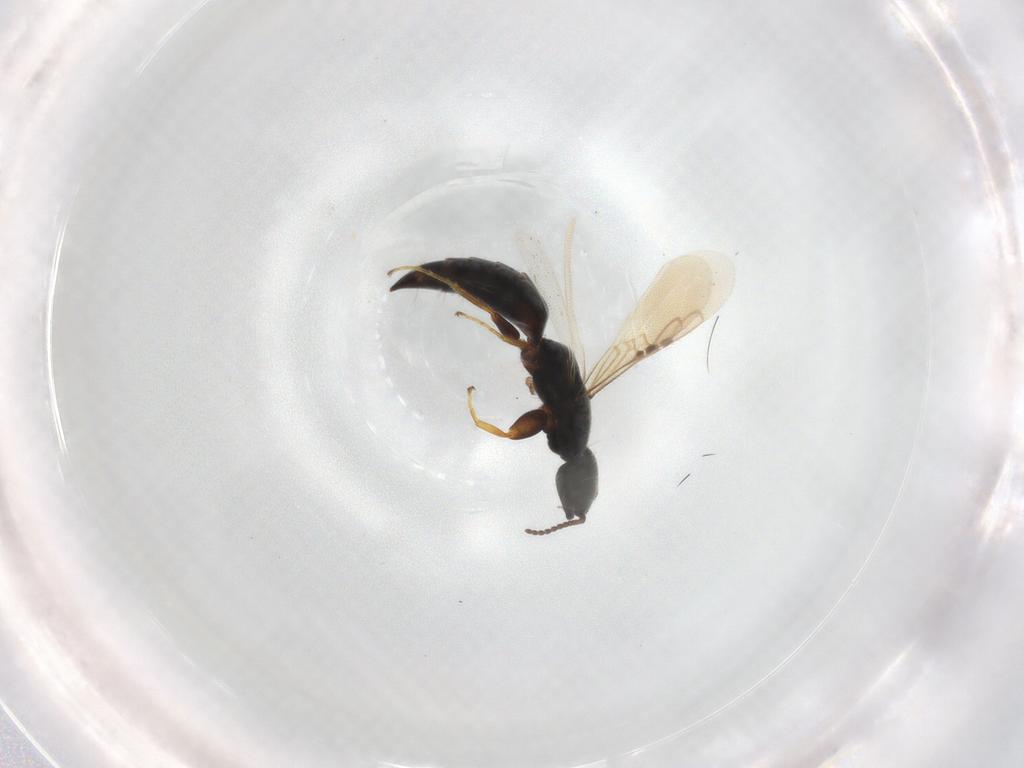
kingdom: Animalia
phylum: Arthropoda
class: Insecta
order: Hymenoptera
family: Bethylidae
